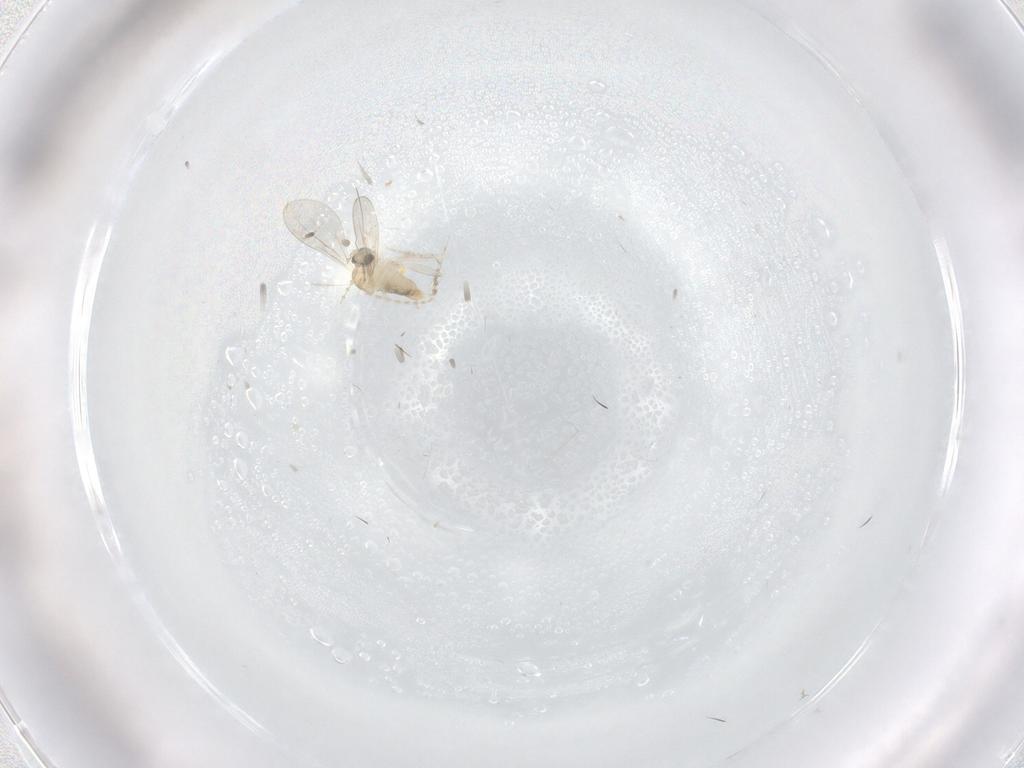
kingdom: Animalia
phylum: Arthropoda
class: Insecta
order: Diptera
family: Cecidomyiidae
